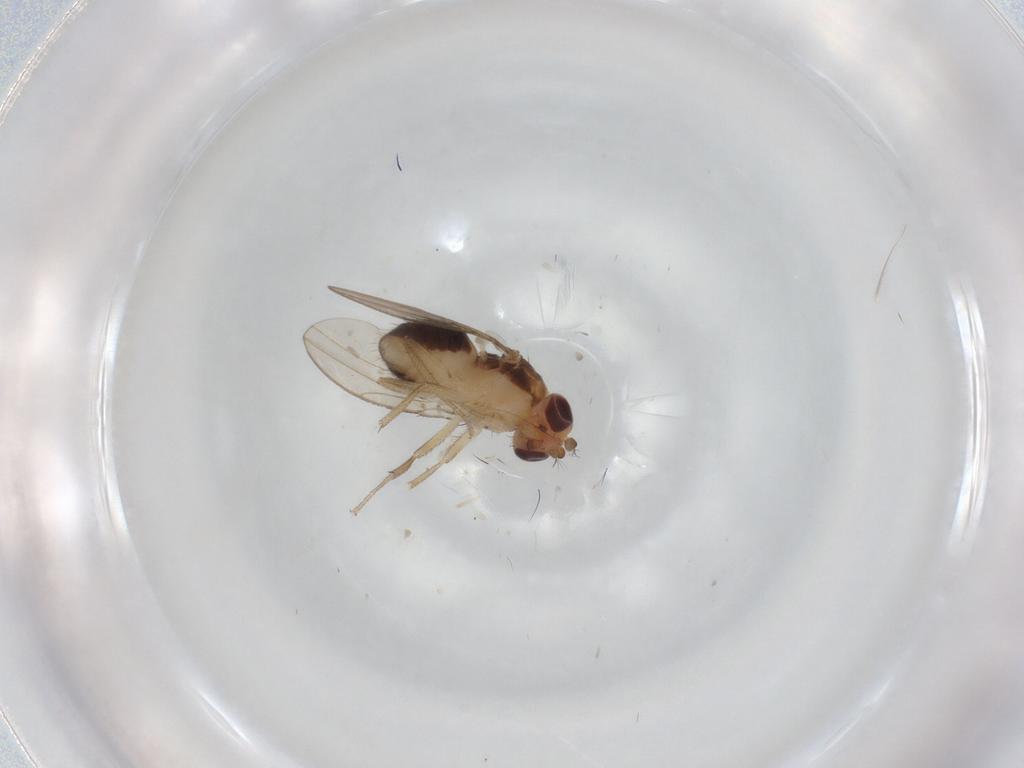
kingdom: Animalia
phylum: Arthropoda
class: Insecta
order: Diptera
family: Drosophilidae
